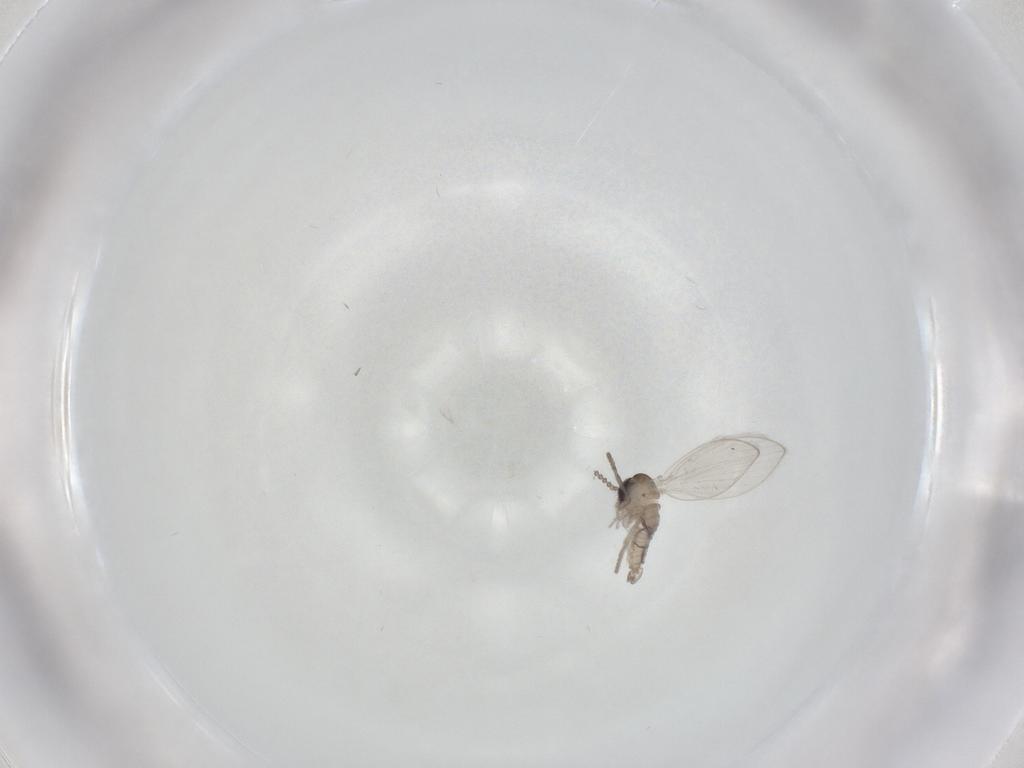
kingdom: Animalia
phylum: Arthropoda
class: Insecta
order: Diptera
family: Psychodidae
